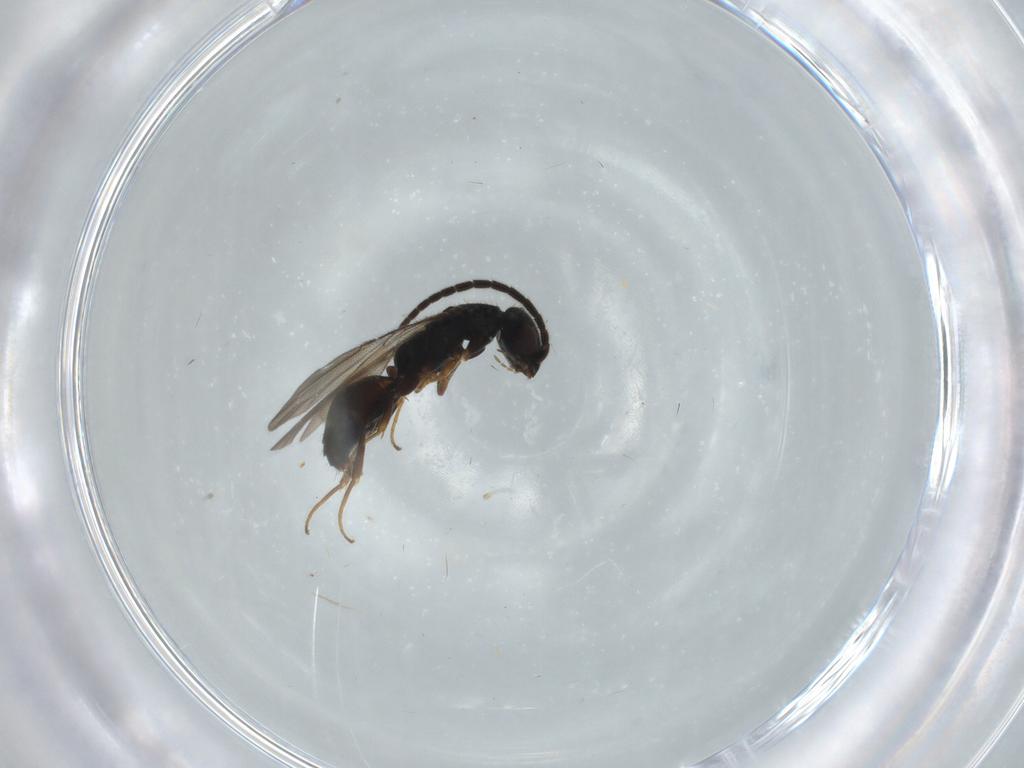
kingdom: Animalia
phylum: Arthropoda
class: Insecta
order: Hymenoptera
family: Bethylidae
